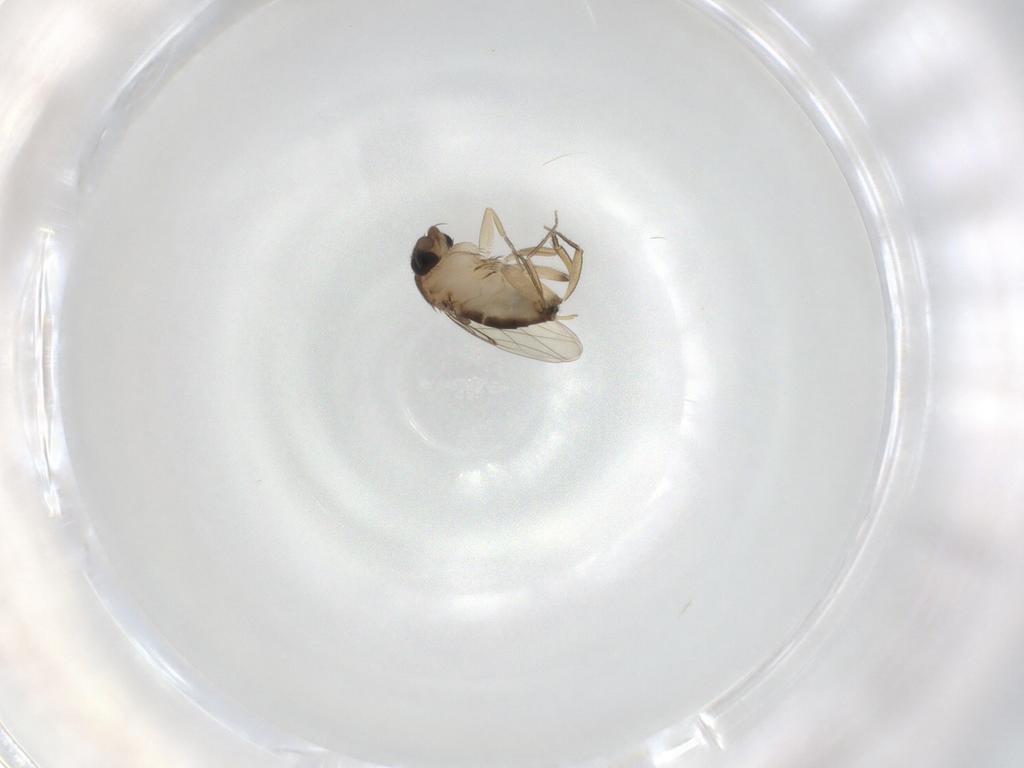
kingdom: Animalia
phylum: Arthropoda
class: Insecta
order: Diptera
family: Phoridae
